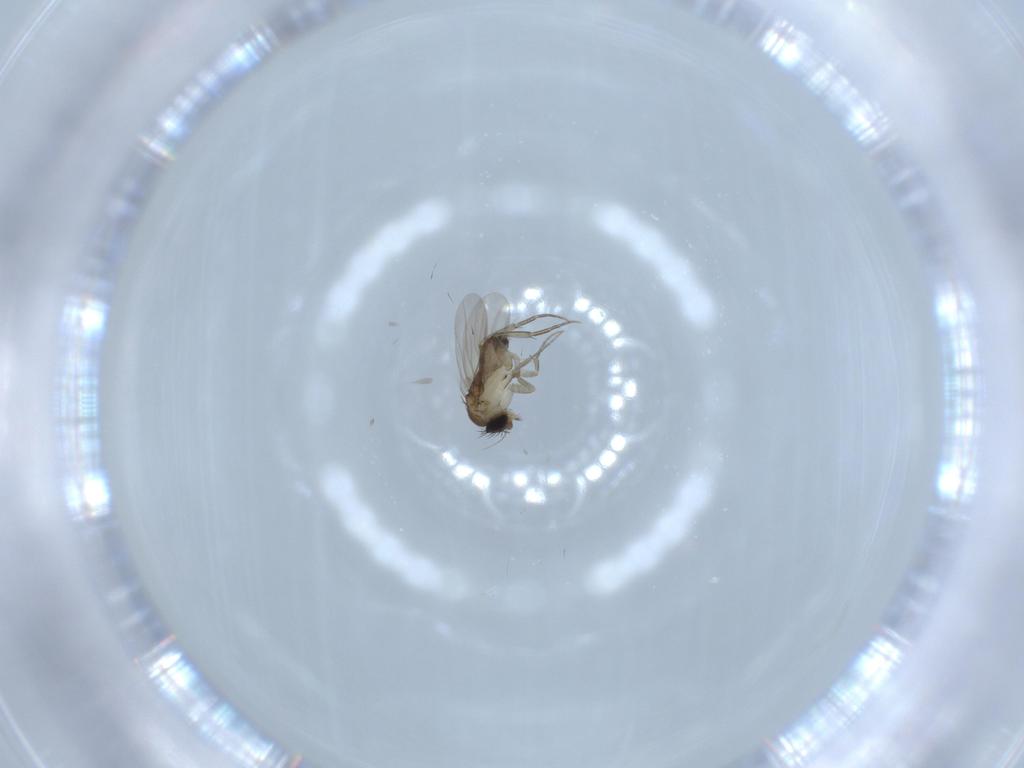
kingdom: Animalia
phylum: Arthropoda
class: Insecta
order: Diptera
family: Phoridae
